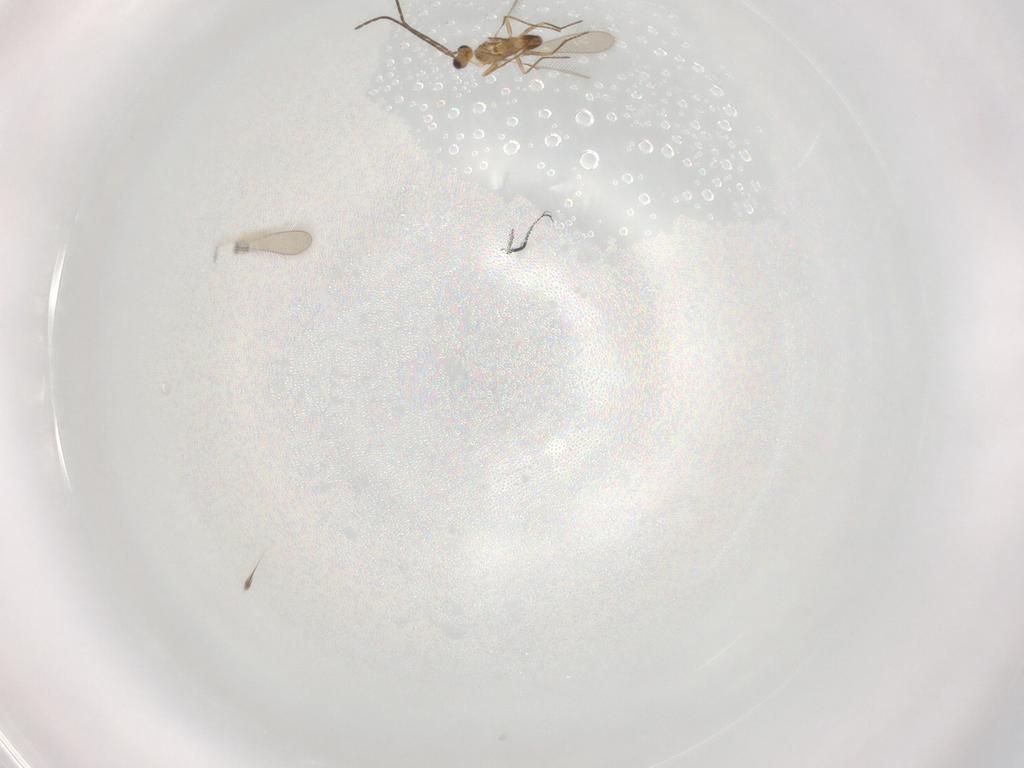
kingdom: Animalia
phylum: Arthropoda
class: Insecta
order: Hymenoptera
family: Mymaridae
